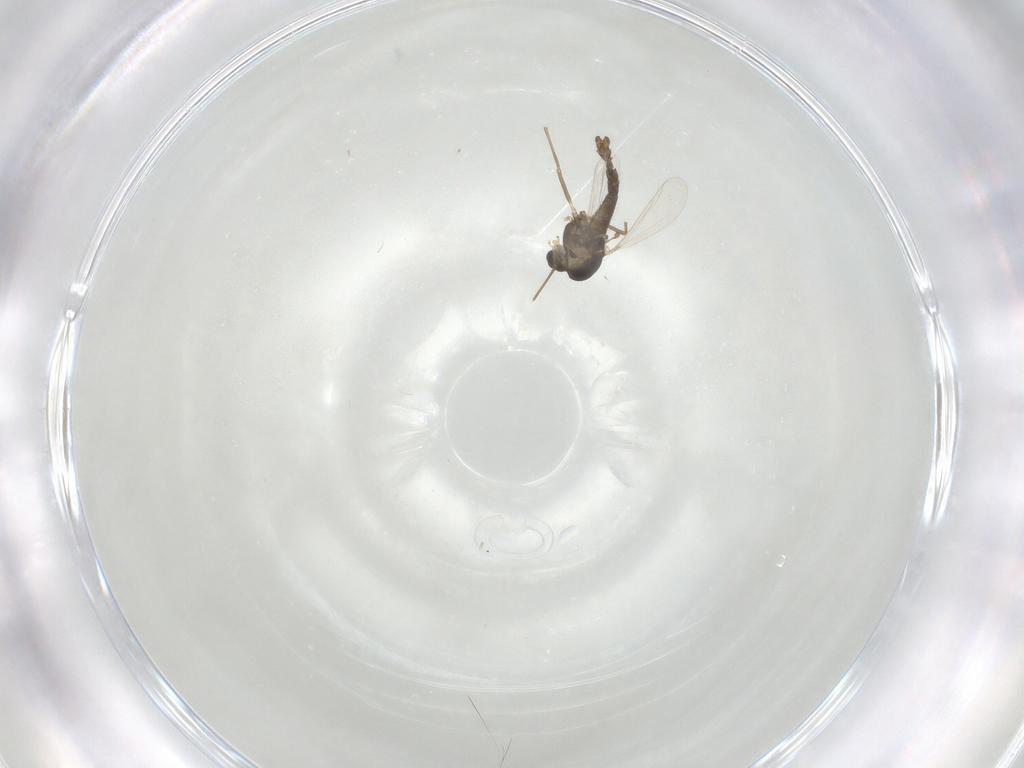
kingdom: Animalia
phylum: Arthropoda
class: Insecta
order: Diptera
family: Chironomidae
